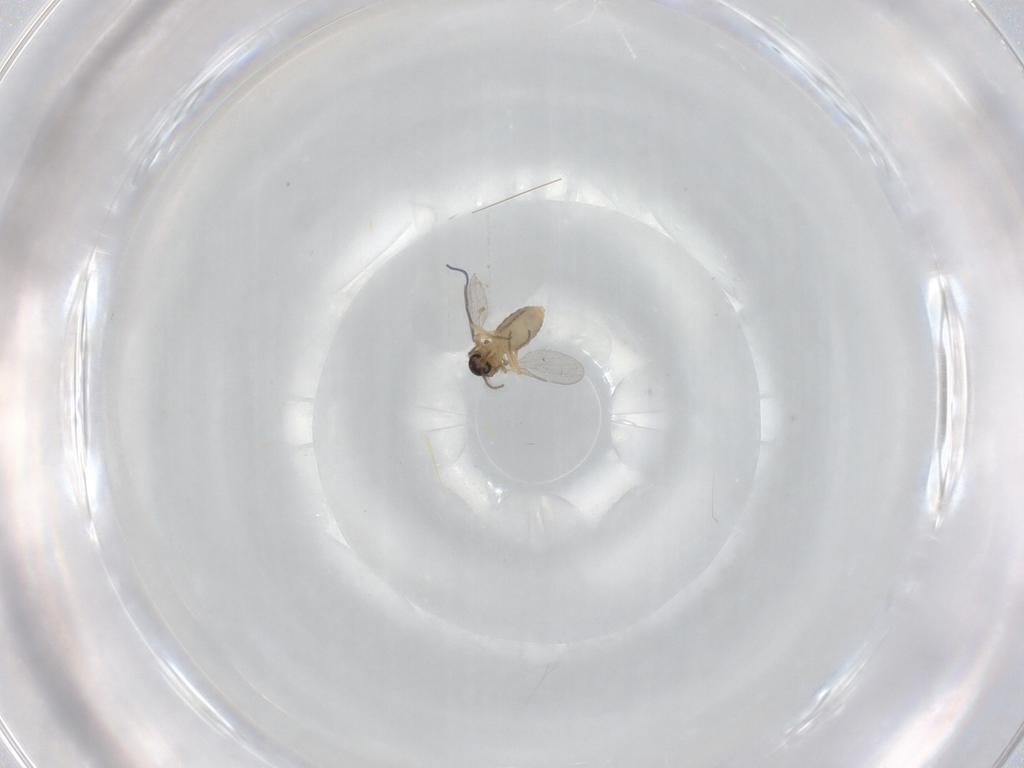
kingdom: Animalia
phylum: Arthropoda
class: Insecta
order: Diptera
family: Ceratopogonidae
